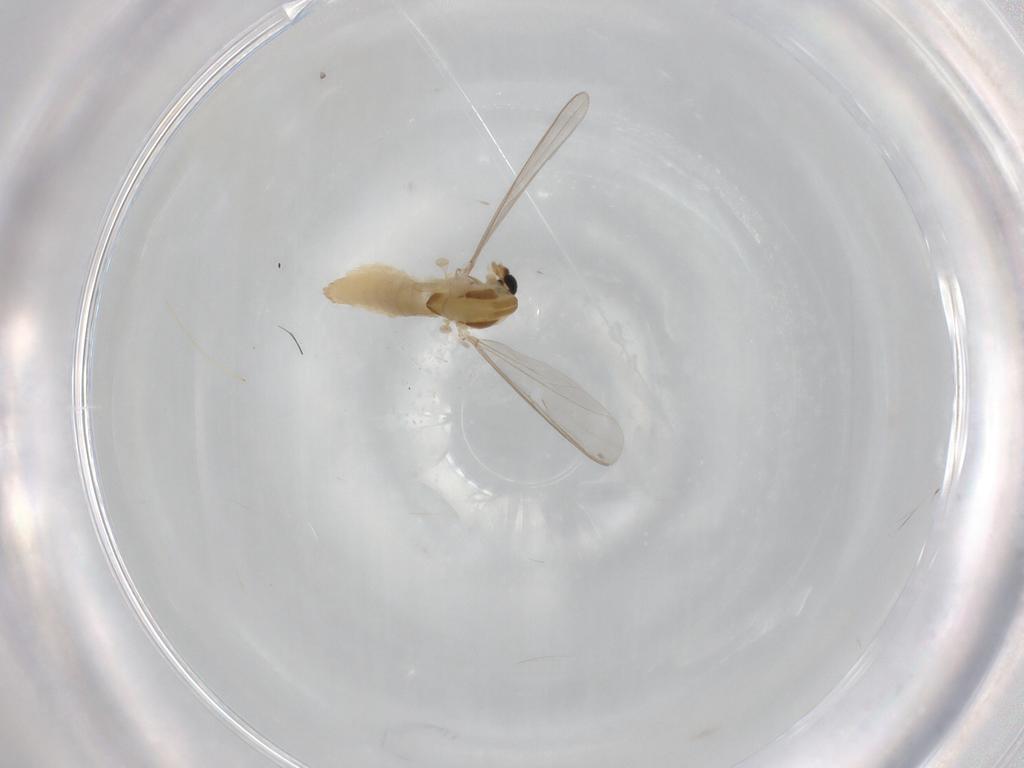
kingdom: Animalia
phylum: Arthropoda
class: Insecta
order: Diptera
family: Chironomidae
